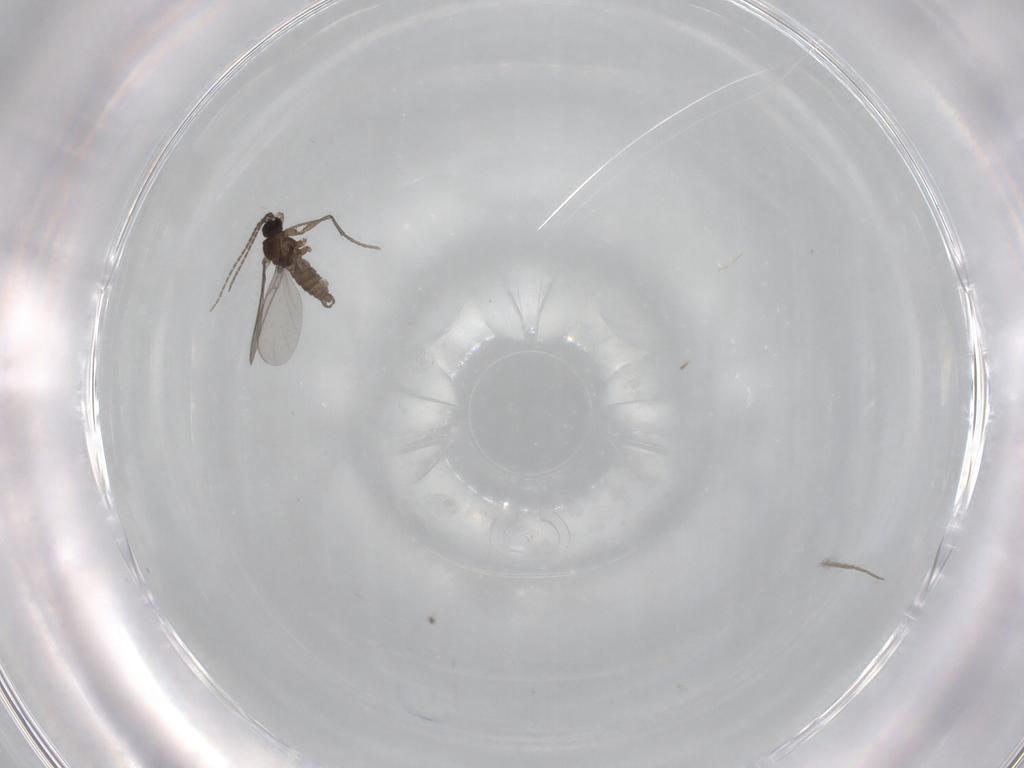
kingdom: Animalia
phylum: Arthropoda
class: Insecta
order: Diptera
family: Sciaridae
